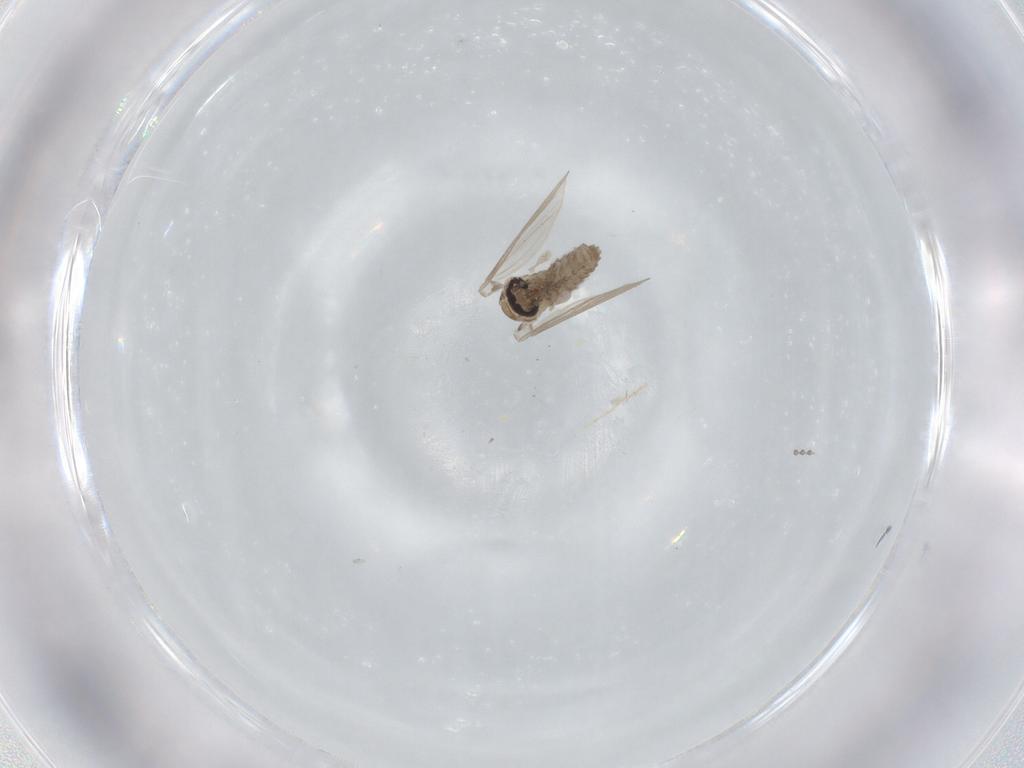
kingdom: Animalia
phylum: Arthropoda
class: Insecta
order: Diptera
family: Psychodidae
